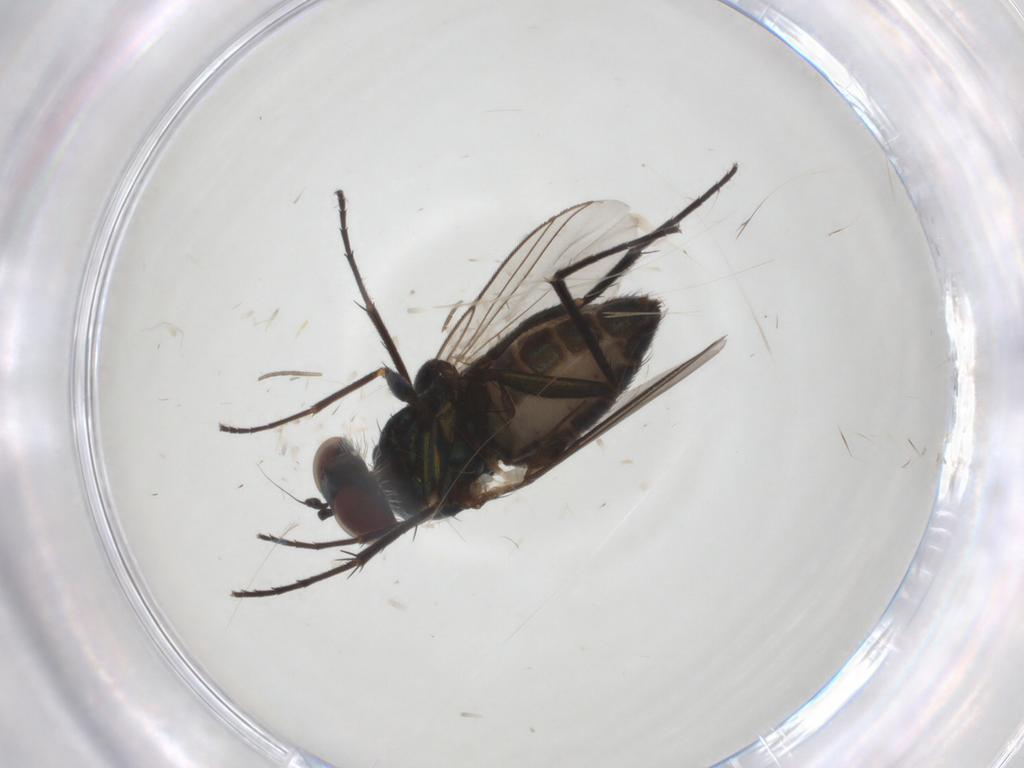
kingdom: Animalia
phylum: Arthropoda
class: Insecta
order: Diptera
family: Dolichopodidae
